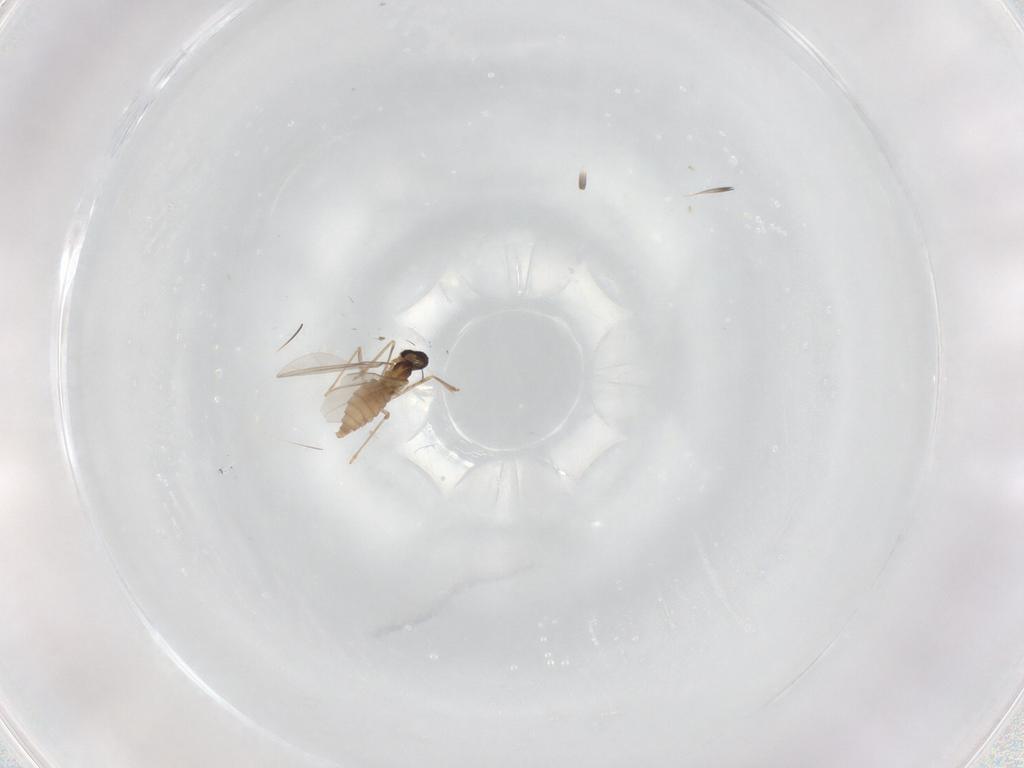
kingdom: Animalia
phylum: Arthropoda
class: Insecta
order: Diptera
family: Cecidomyiidae
